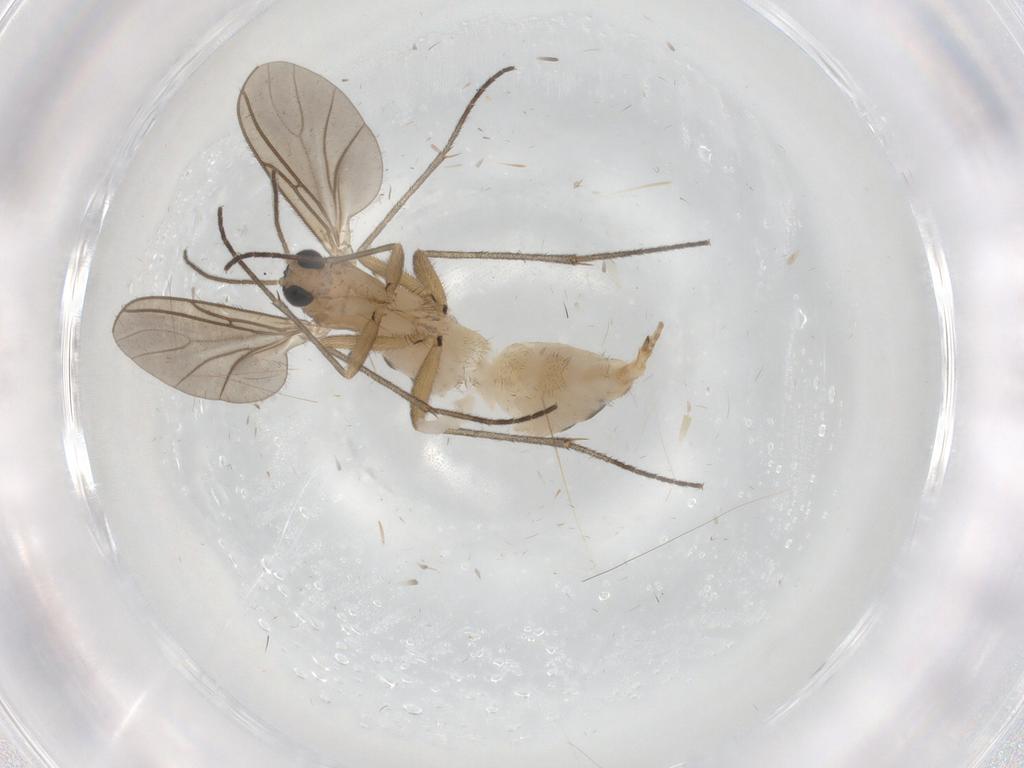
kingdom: Animalia
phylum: Arthropoda
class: Insecta
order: Diptera
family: Sciaridae
